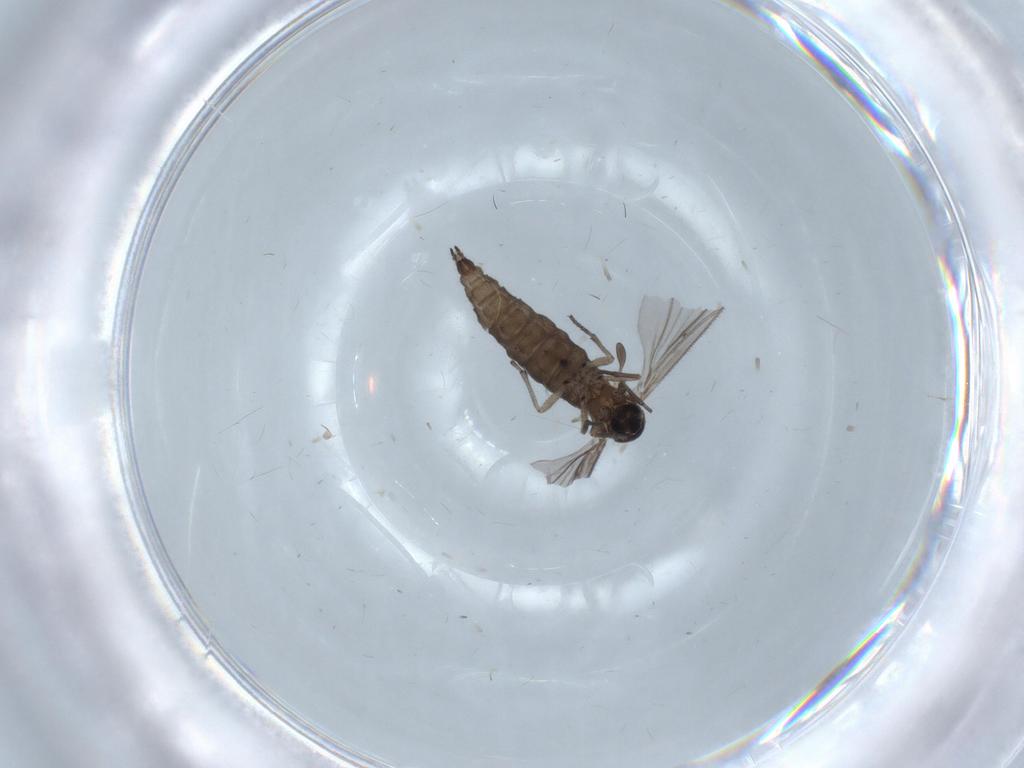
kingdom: Animalia
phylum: Arthropoda
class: Insecta
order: Diptera
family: Sciaridae
